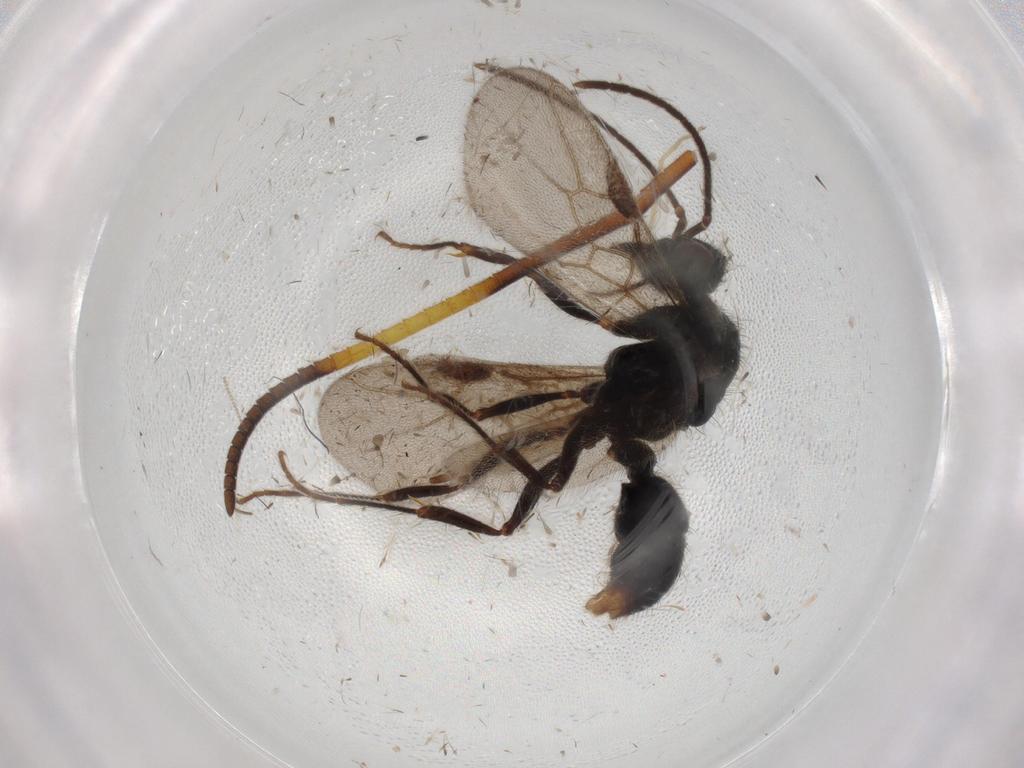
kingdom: Animalia
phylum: Arthropoda
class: Insecta
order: Hymenoptera
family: Formicidae
